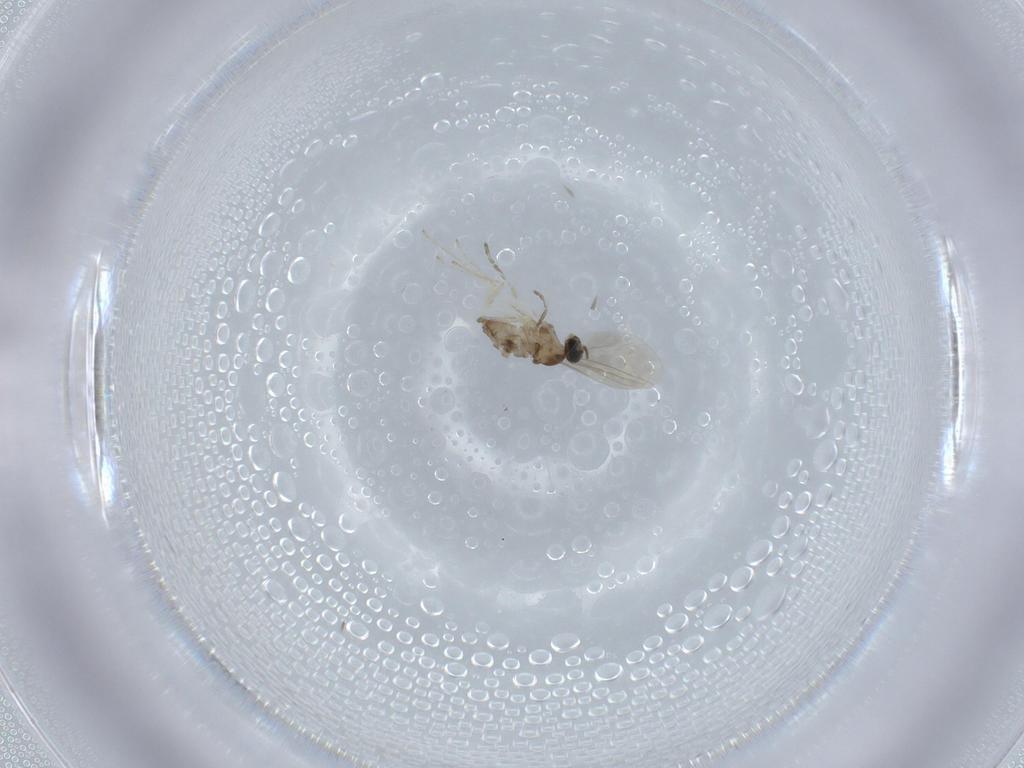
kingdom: Animalia
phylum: Arthropoda
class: Insecta
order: Diptera
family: Cecidomyiidae
